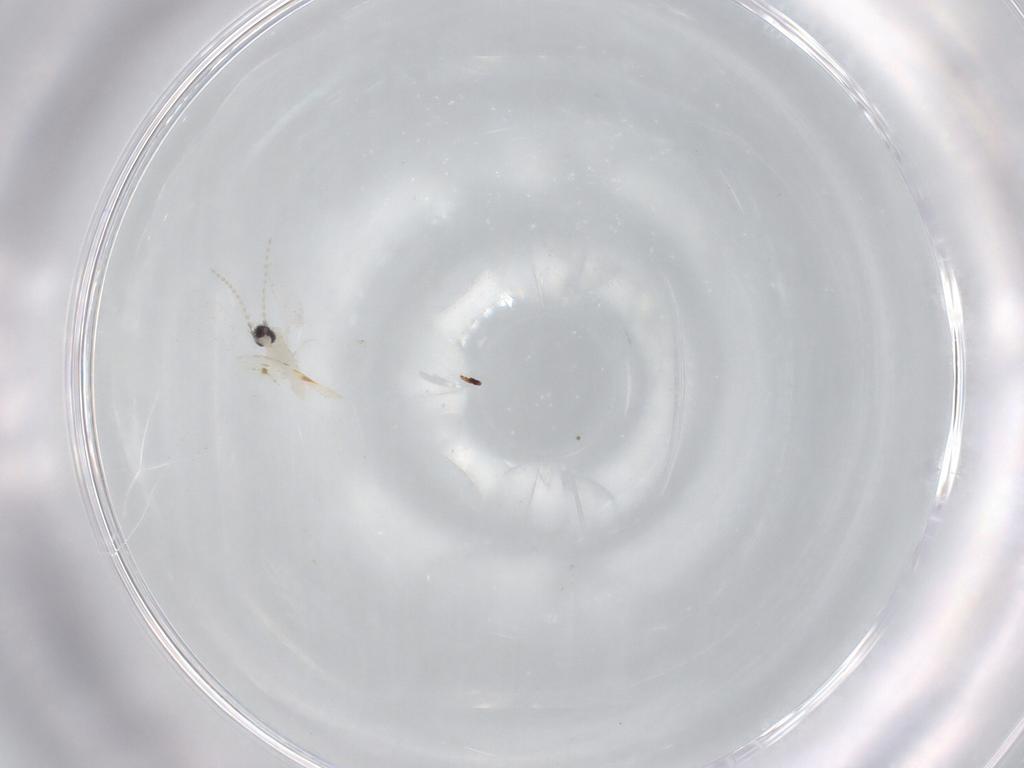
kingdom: Animalia
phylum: Arthropoda
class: Insecta
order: Diptera
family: Cecidomyiidae
